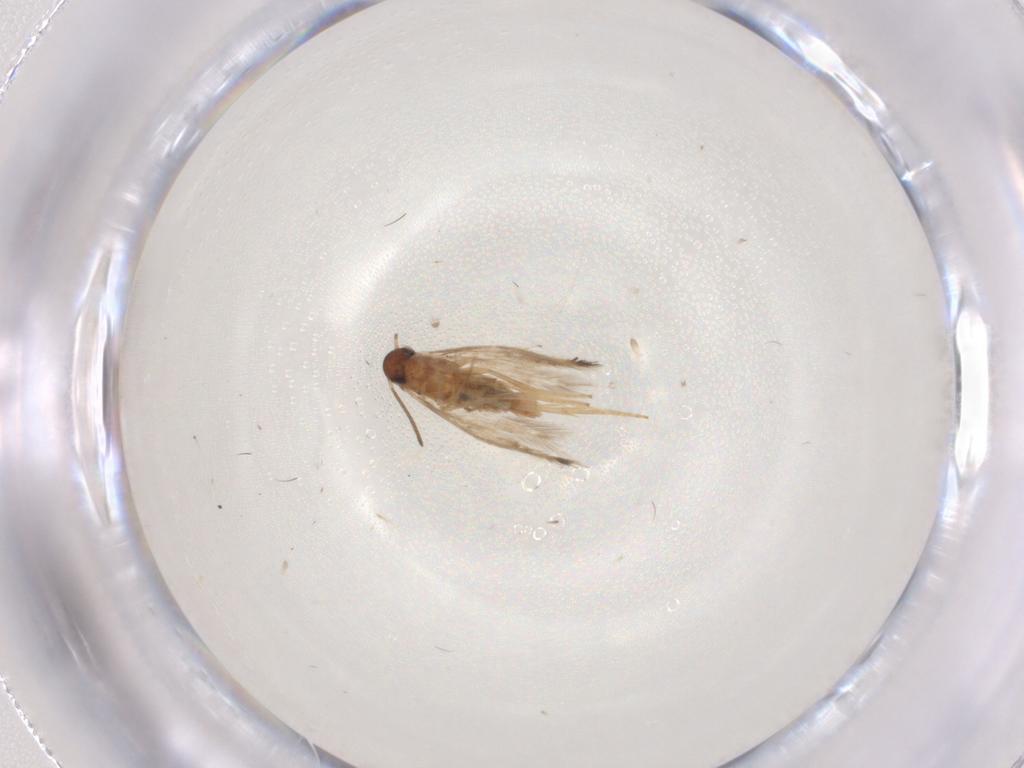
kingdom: Animalia
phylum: Arthropoda
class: Insecta
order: Lepidoptera
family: Heliozelidae
